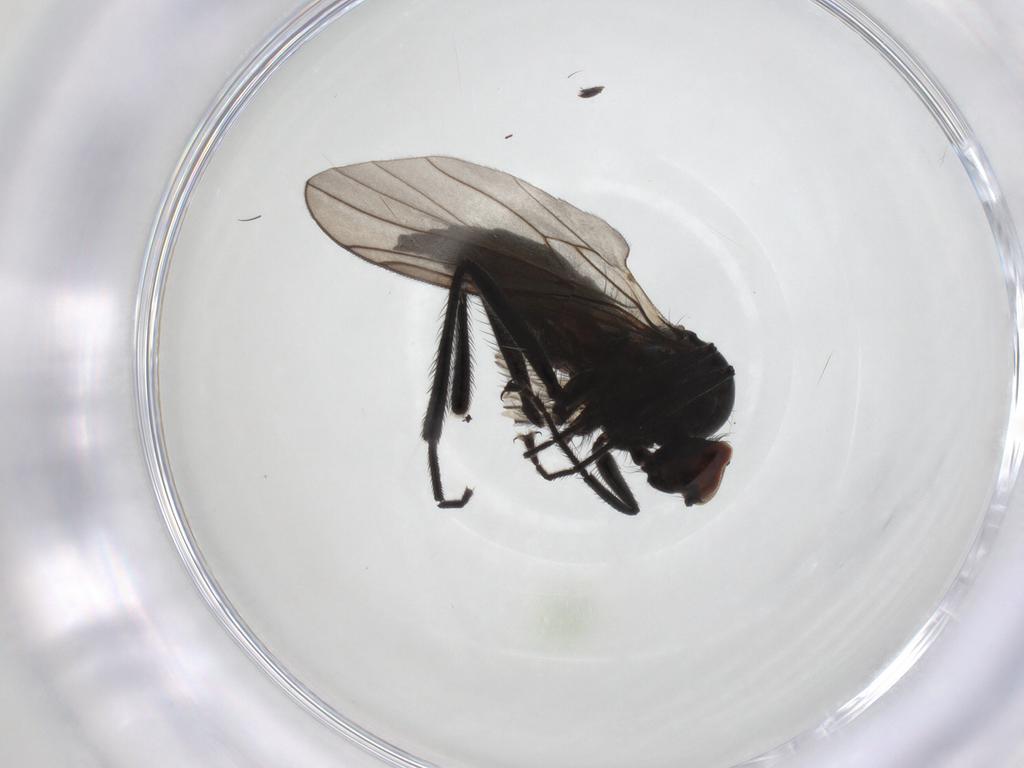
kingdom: Animalia
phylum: Arthropoda
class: Insecta
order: Diptera
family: Hybotidae
